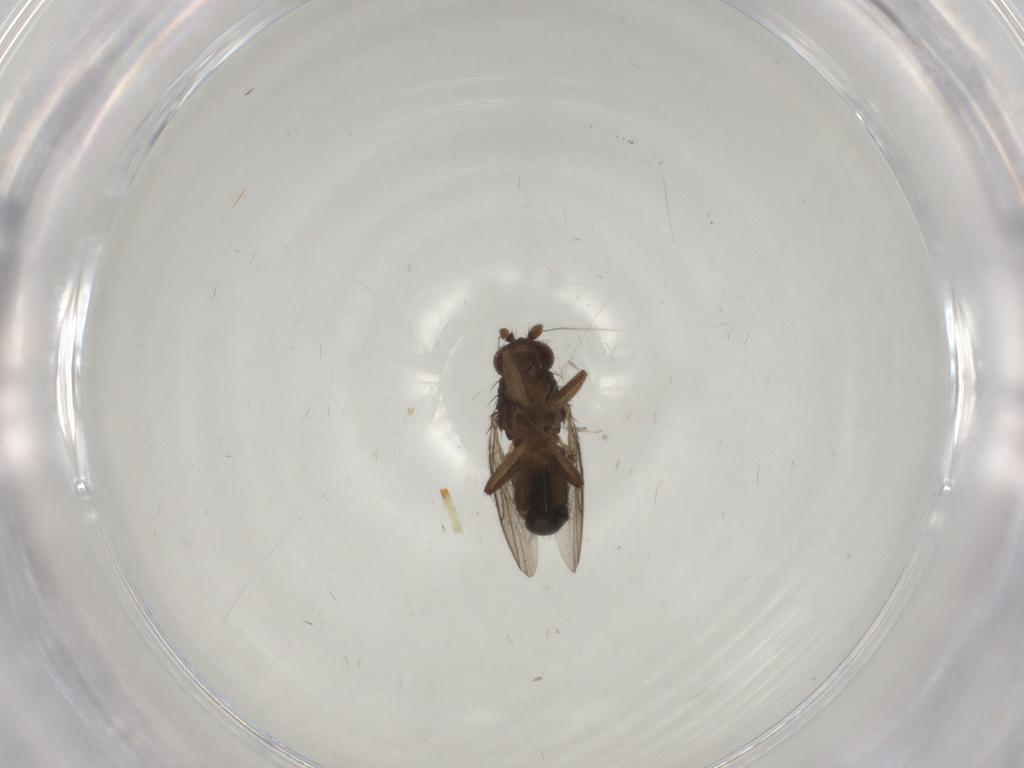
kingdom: Animalia
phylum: Arthropoda
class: Insecta
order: Diptera
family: Sphaeroceridae
